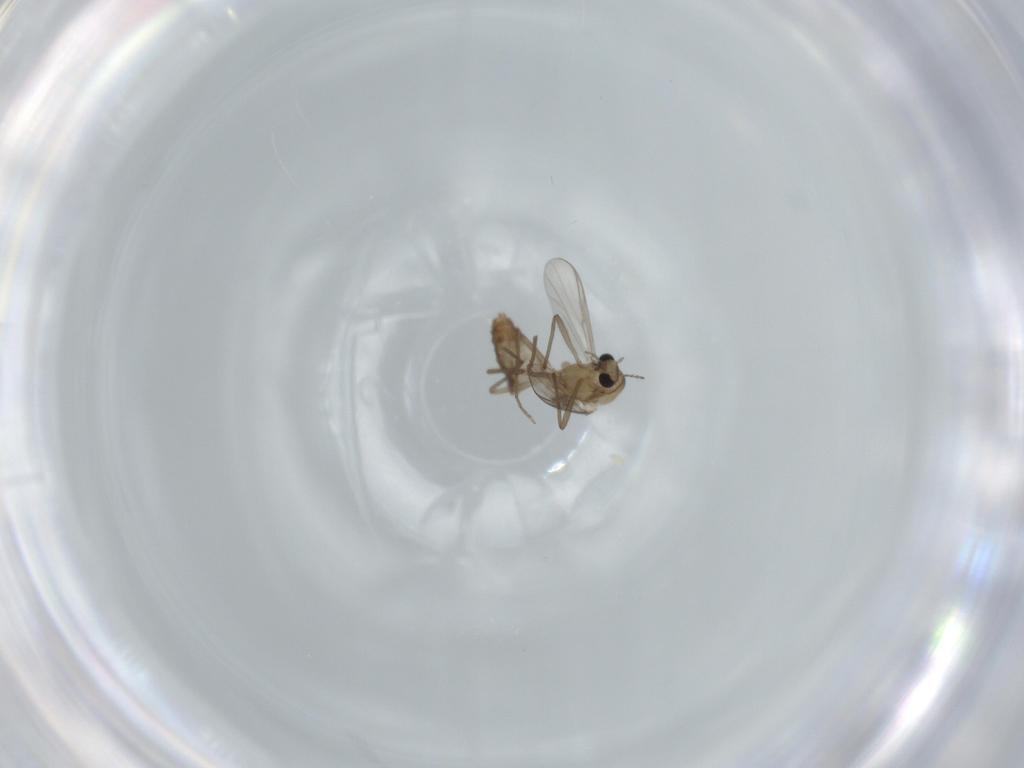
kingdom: Animalia
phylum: Arthropoda
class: Insecta
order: Diptera
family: Chironomidae
